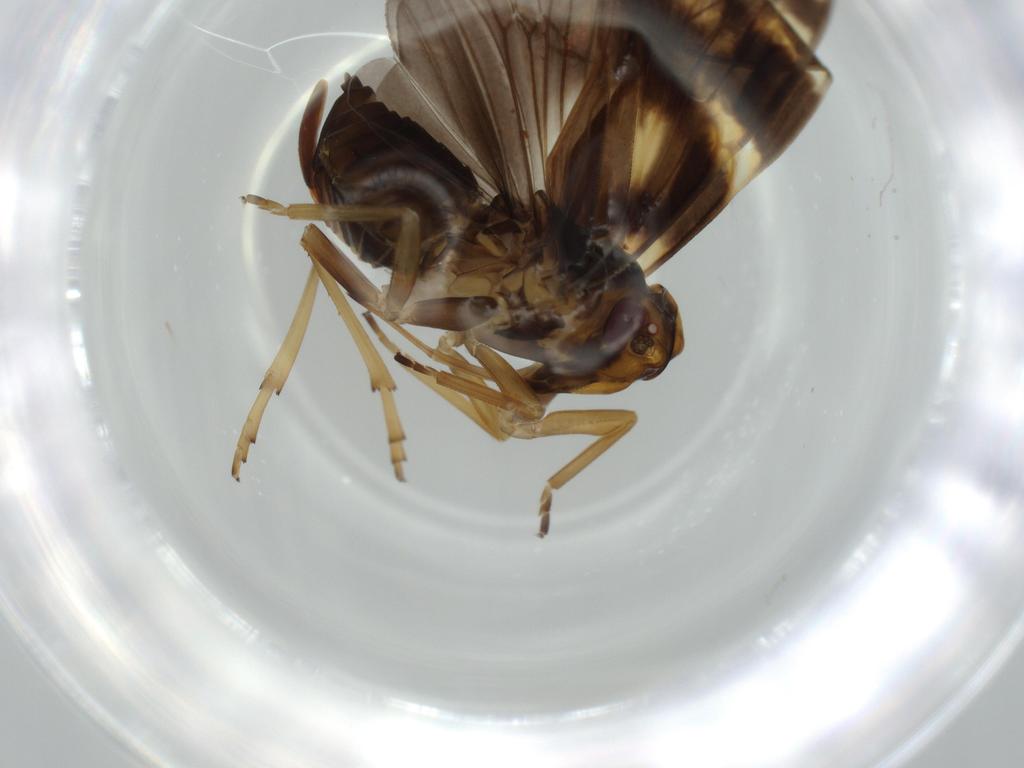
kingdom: Animalia
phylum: Arthropoda
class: Insecta
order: Hemiptera
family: Cixiidae
